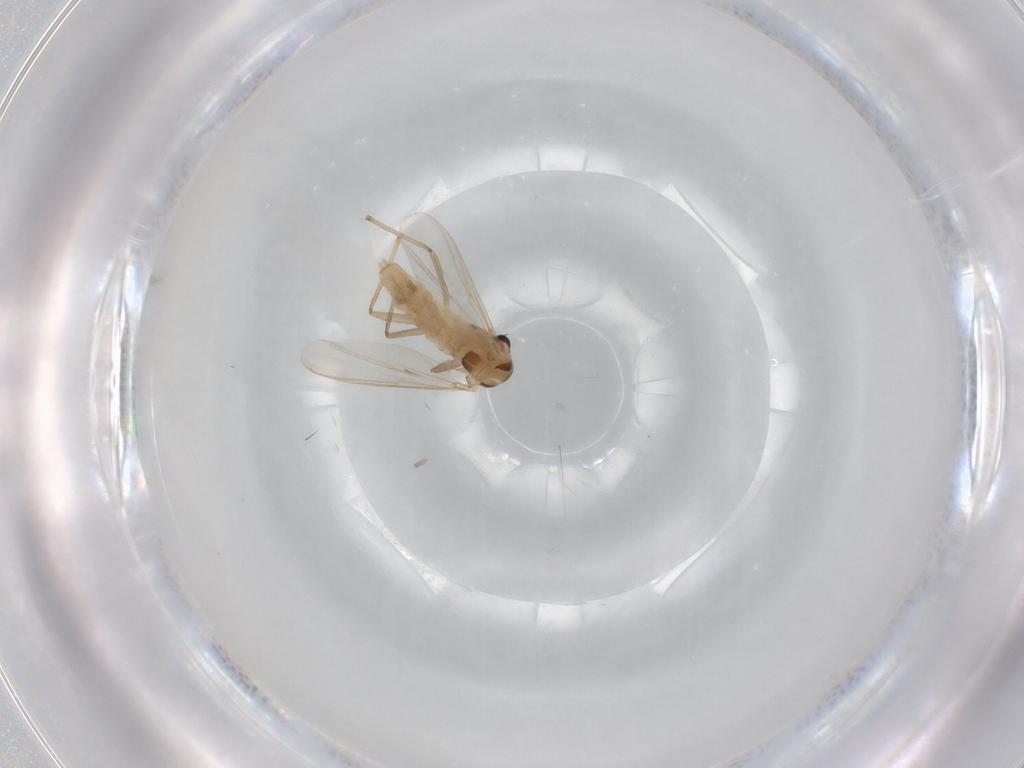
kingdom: Animalia
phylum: Arthropoda
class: Insecta
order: Diptera
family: Chironomidae
